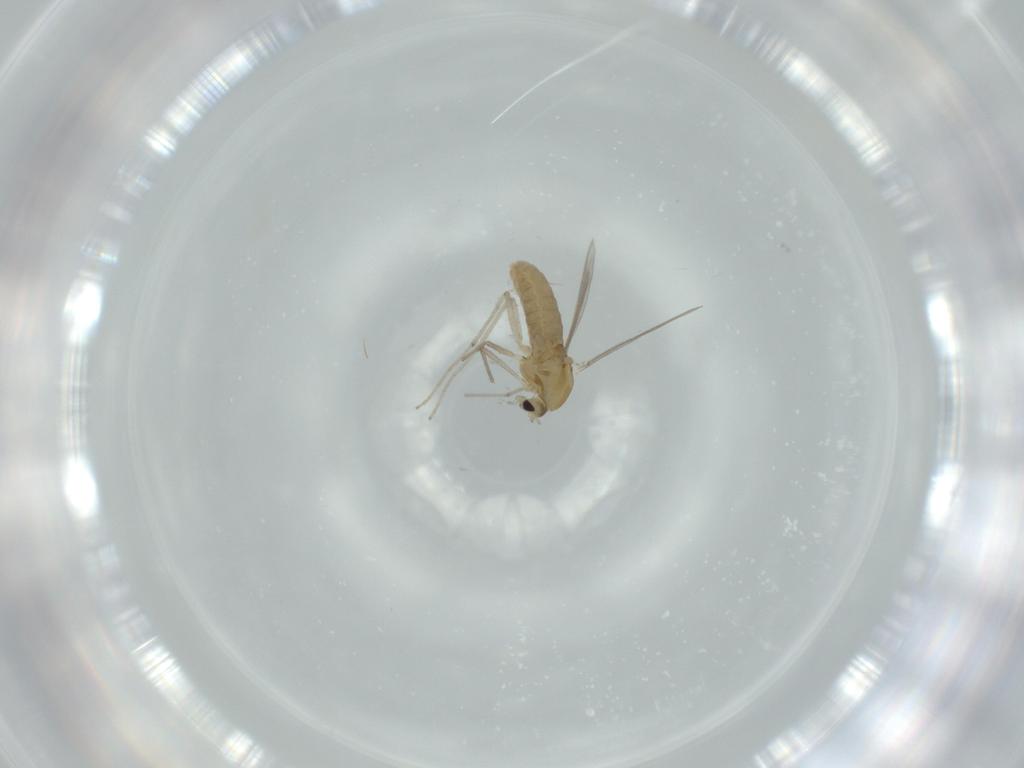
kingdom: Animalia
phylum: Arthropoda
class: Insecta
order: Diptera
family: Chironomidae
